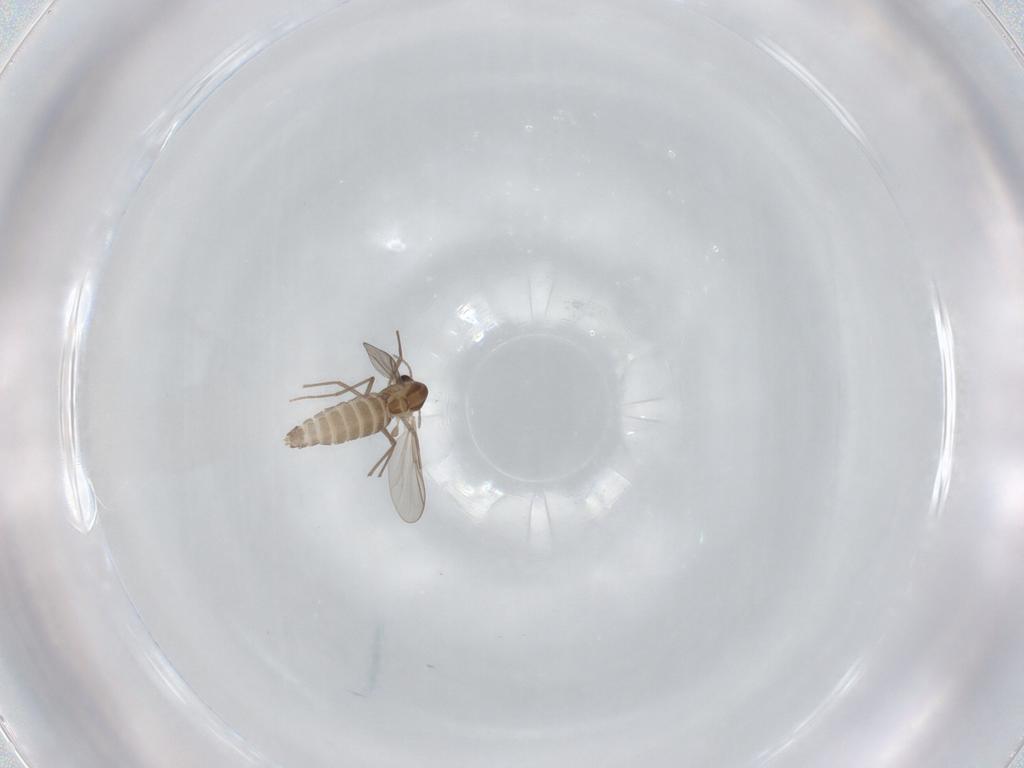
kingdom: Animalia
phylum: Arthropoda
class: Insecta
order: Diptera
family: Chironomidae
